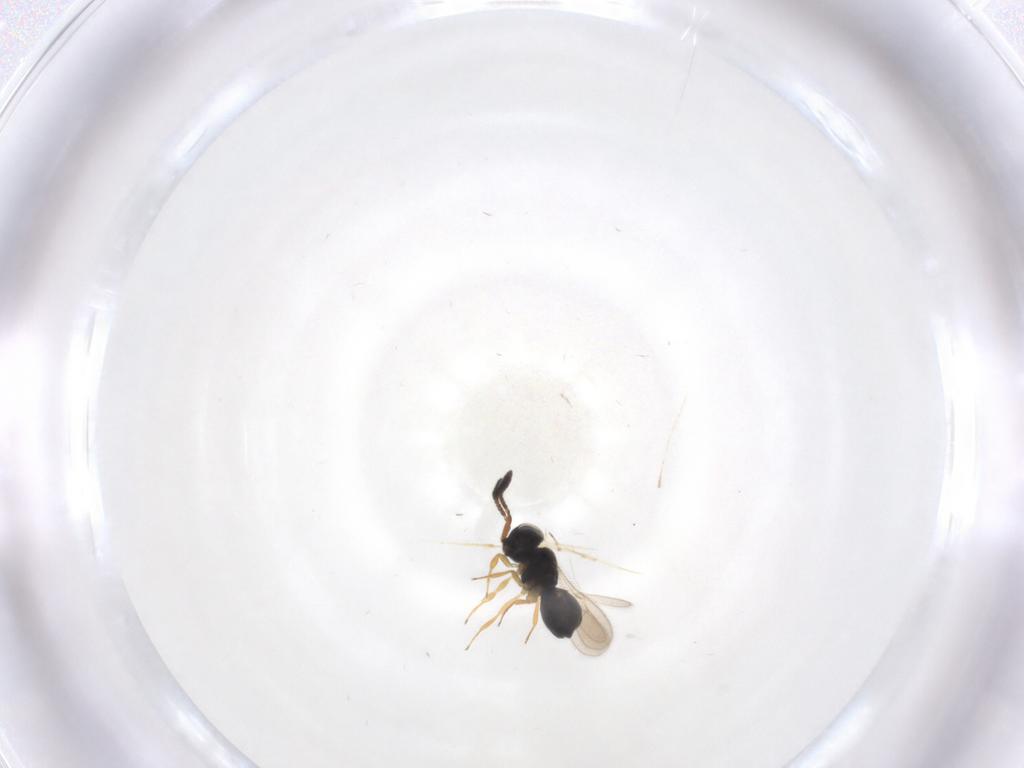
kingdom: Animalia
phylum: Arthropoda
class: Insecta
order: Hymenoptera
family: Scelionidae
